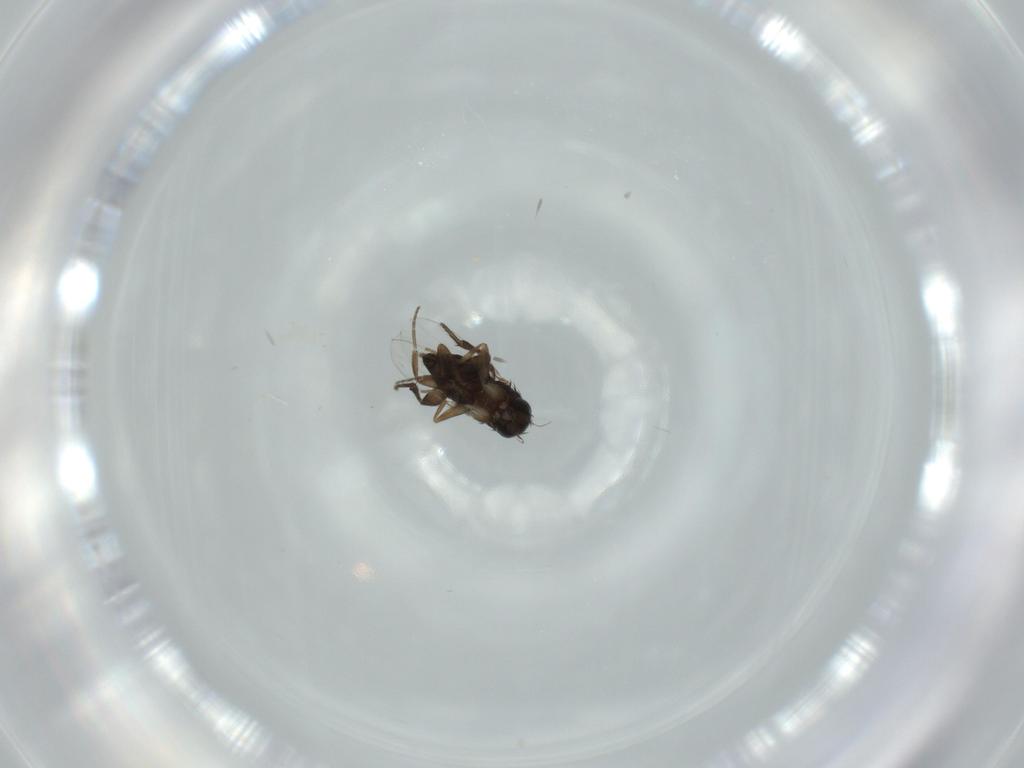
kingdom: Animalia
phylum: Arthropoda
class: Insecta
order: Diptera
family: Phoridae
